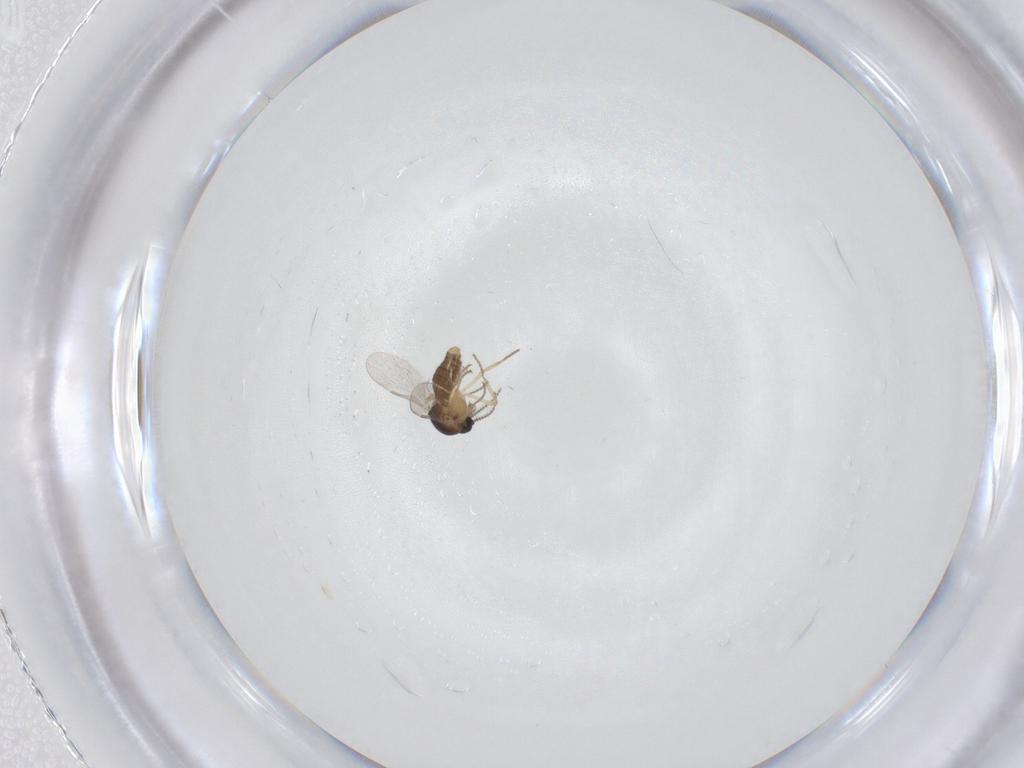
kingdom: Animalia
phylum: Arthropoda
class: Insecta
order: Diptera
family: Ceratopogonidae
